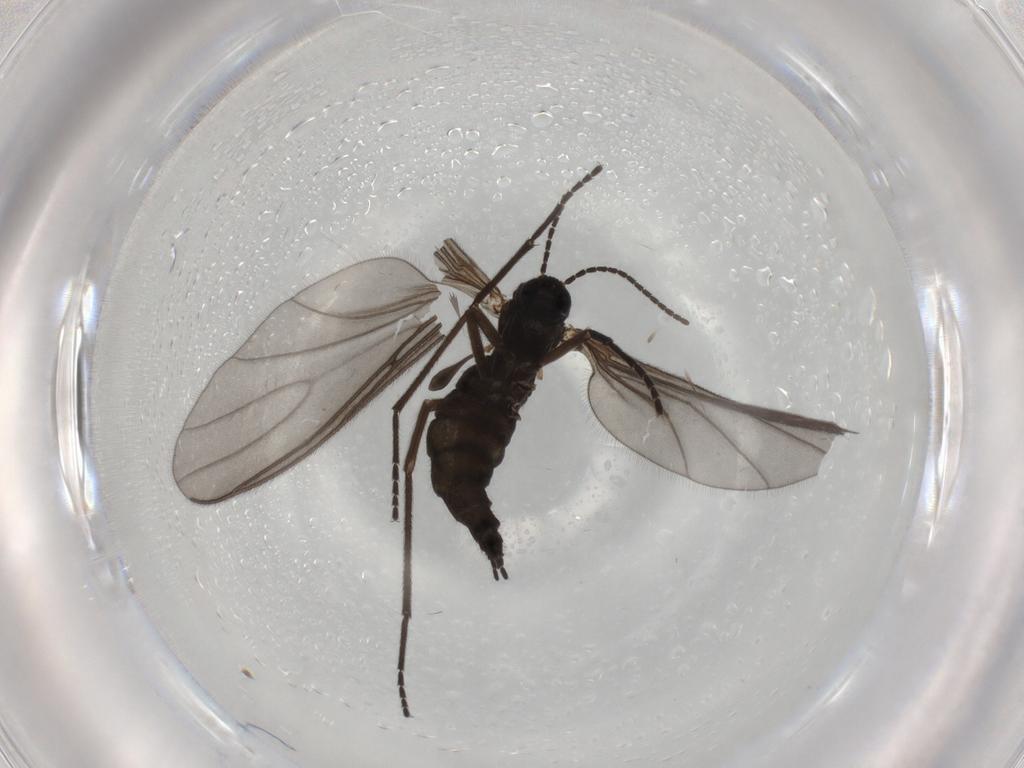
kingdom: Animalia
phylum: Arthropoda
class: Insecta
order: Diptera
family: Sciaridae
